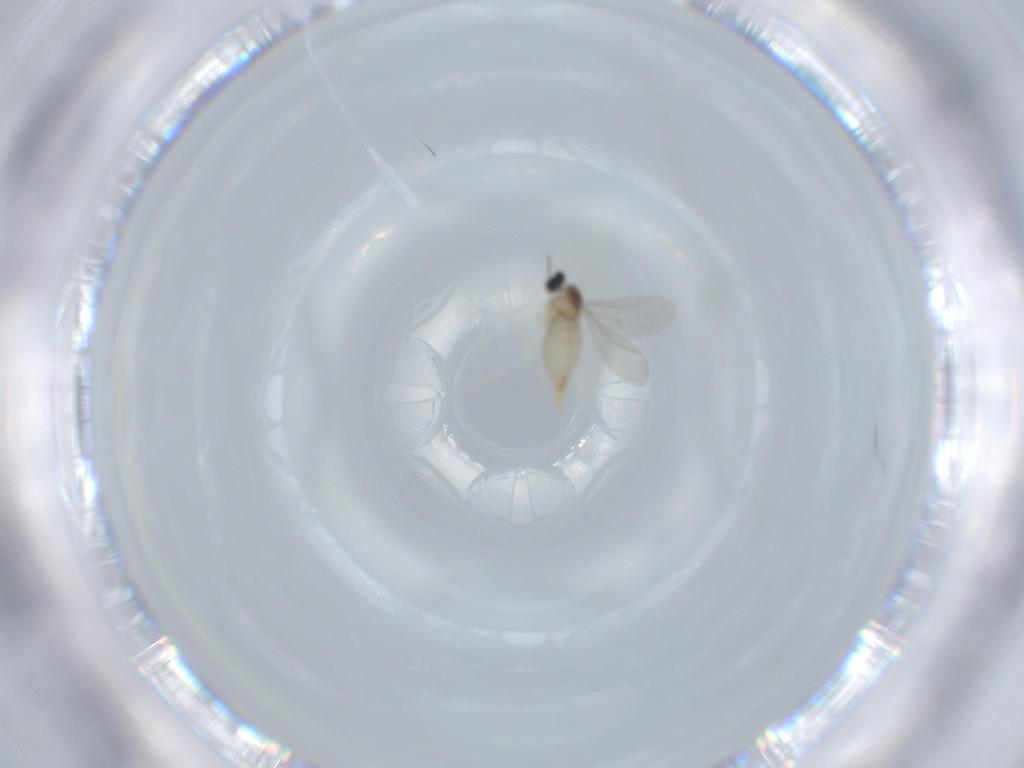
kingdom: Animalia
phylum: Arthropoda
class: Insecta
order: Diptera
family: Cecidomyiidae
